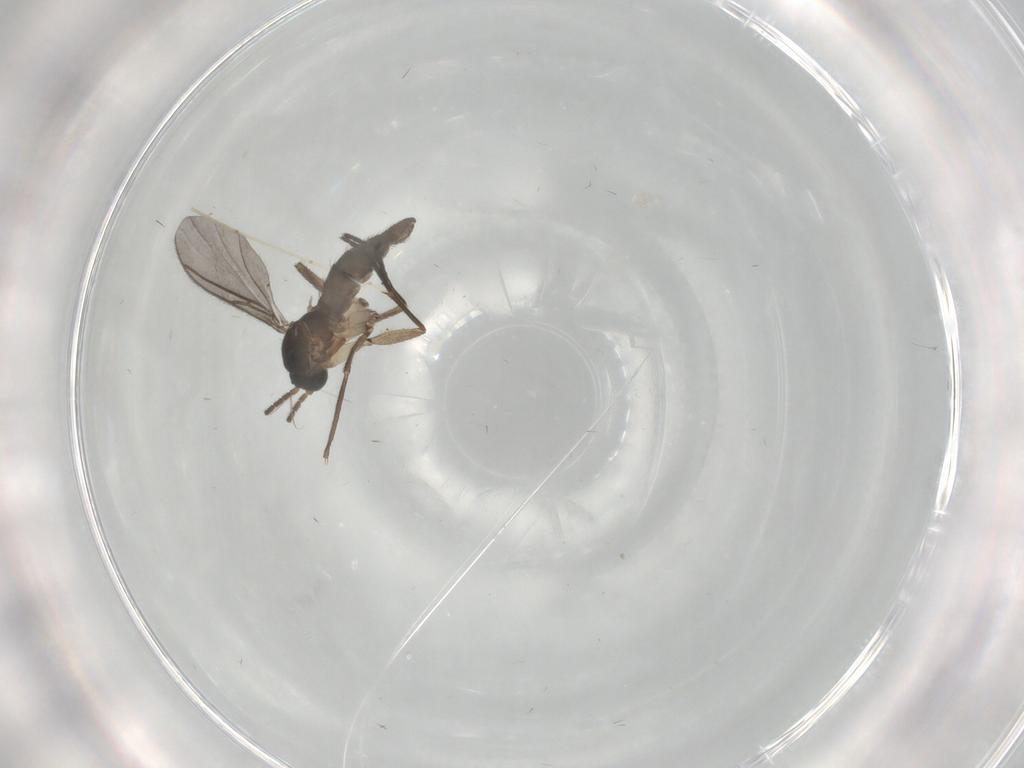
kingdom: Animalia
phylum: Arthropoda
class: Insecta
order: Diptera
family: Sciaridae
